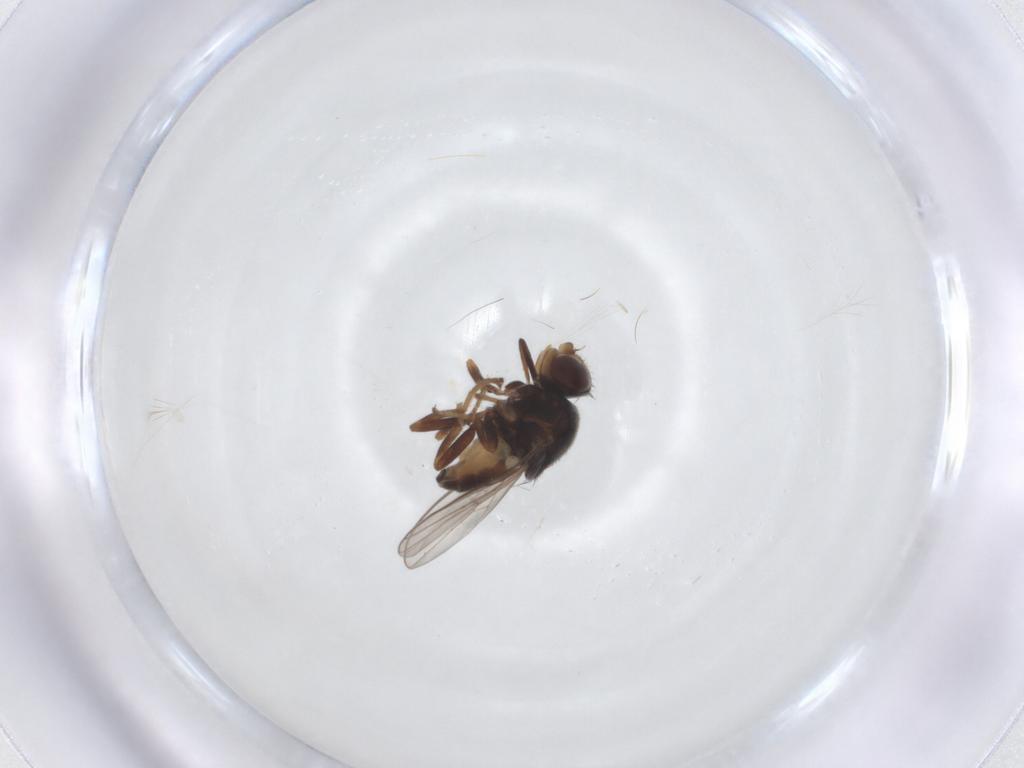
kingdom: Animalia
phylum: Arthropoda
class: Insecta
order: Diptera
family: Chloropidae
